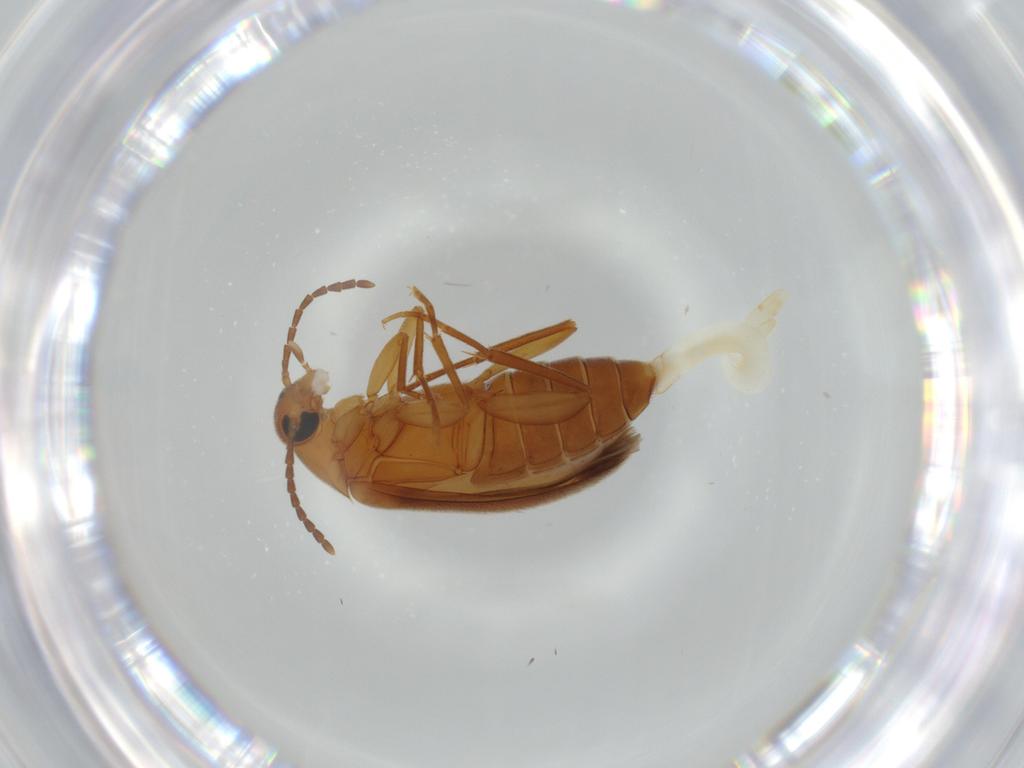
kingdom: Animalia
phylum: Arthropoda
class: Insecta
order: Coleoptera
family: Scraptiidae
